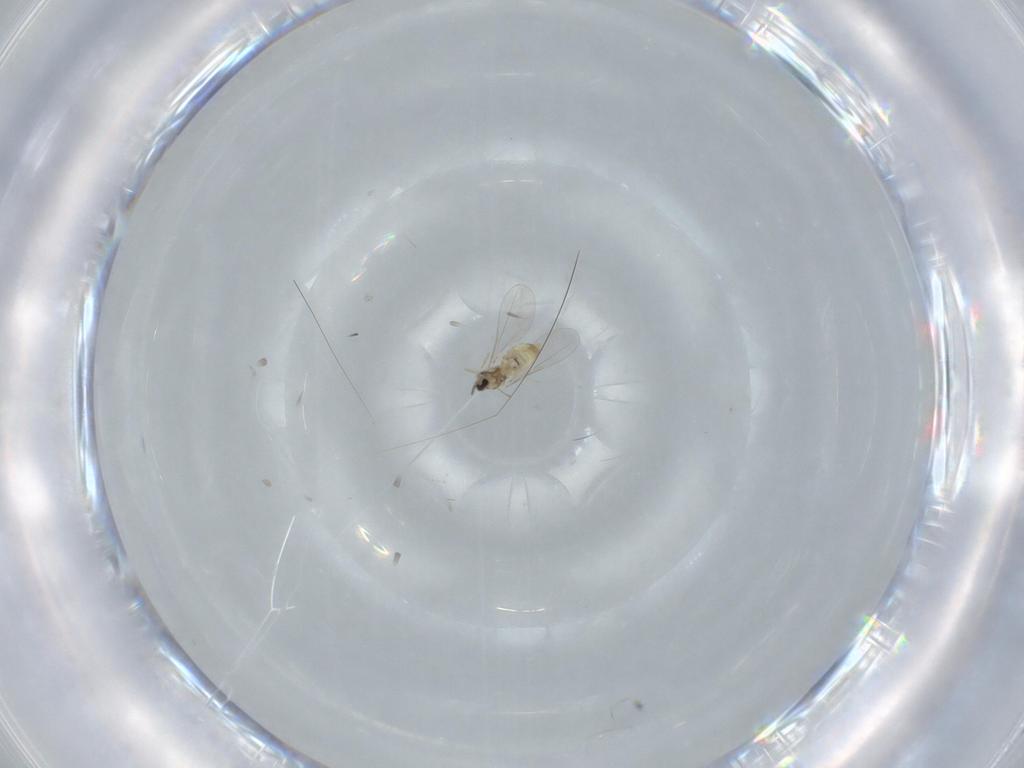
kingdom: Animalia
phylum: Arthropoda
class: Insecta
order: Diptera
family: Cecidomyiidae
